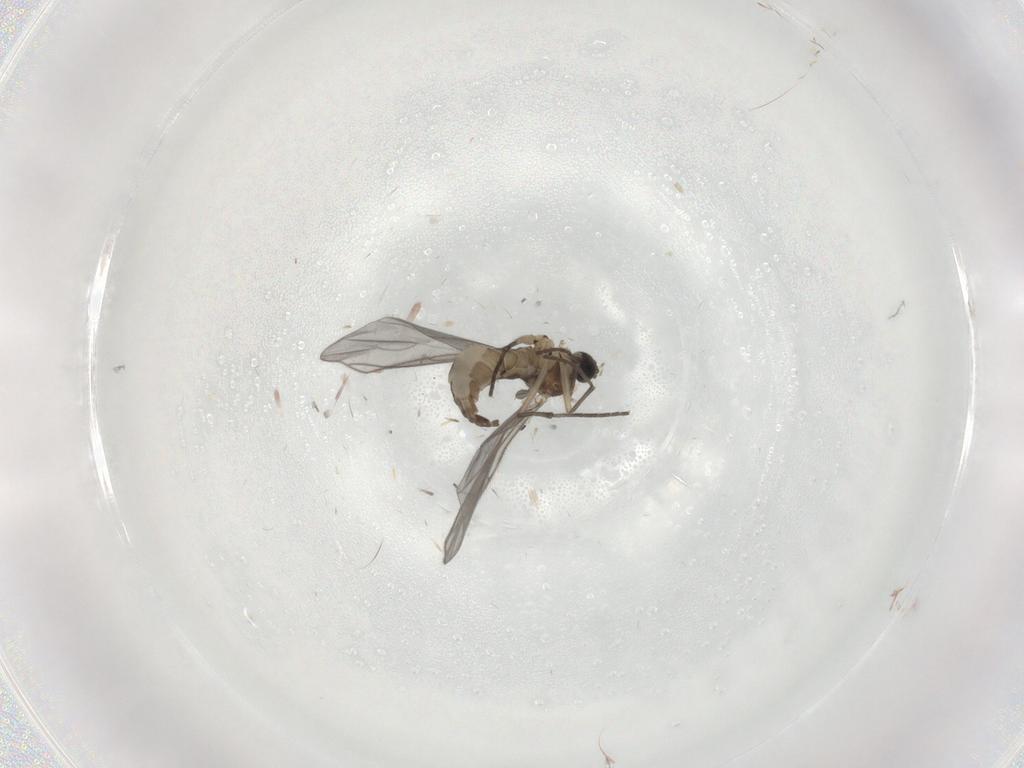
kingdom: Animalia
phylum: Arthropoda
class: Insecta
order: Diptera
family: Sciaridae
